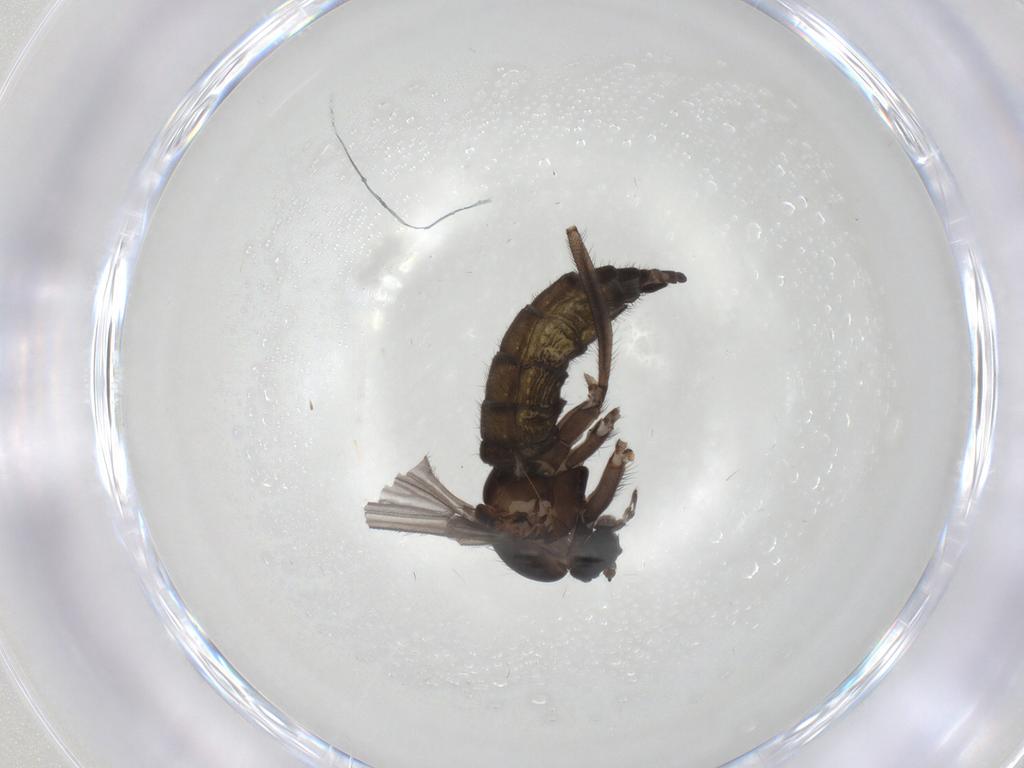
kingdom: Animalia
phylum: Arthropoda
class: Insecta
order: Diptera
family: Sciaridae
